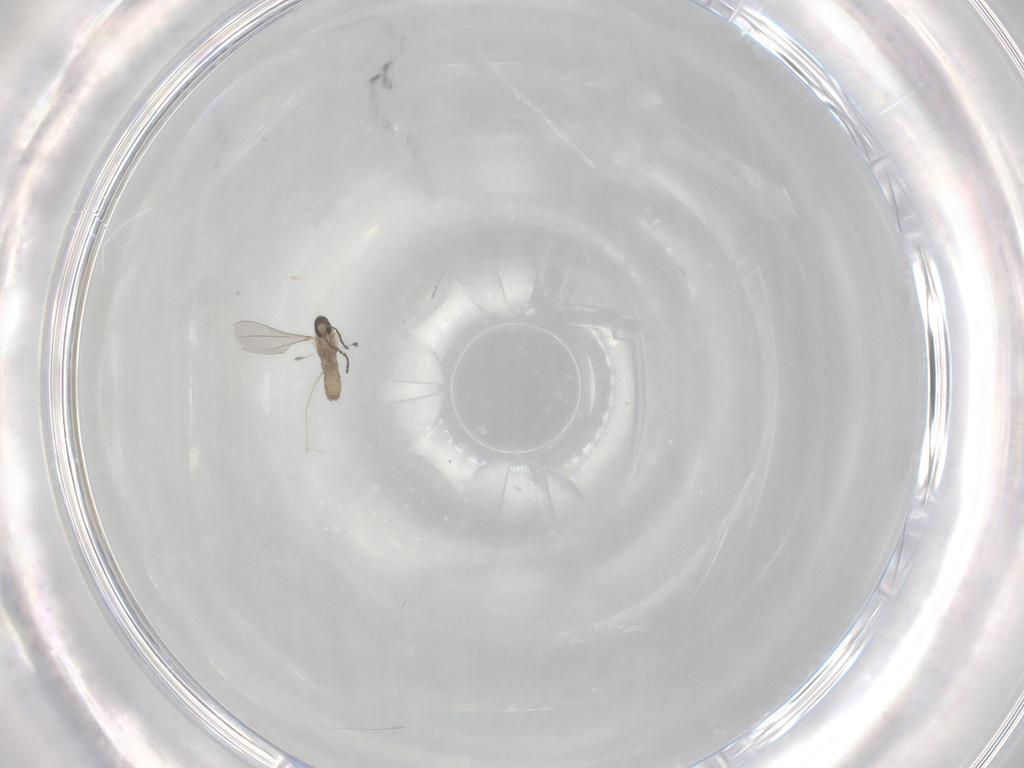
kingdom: Animalia
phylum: Arthropoda
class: Insecta
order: Diptera
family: Cecidomyiidae
